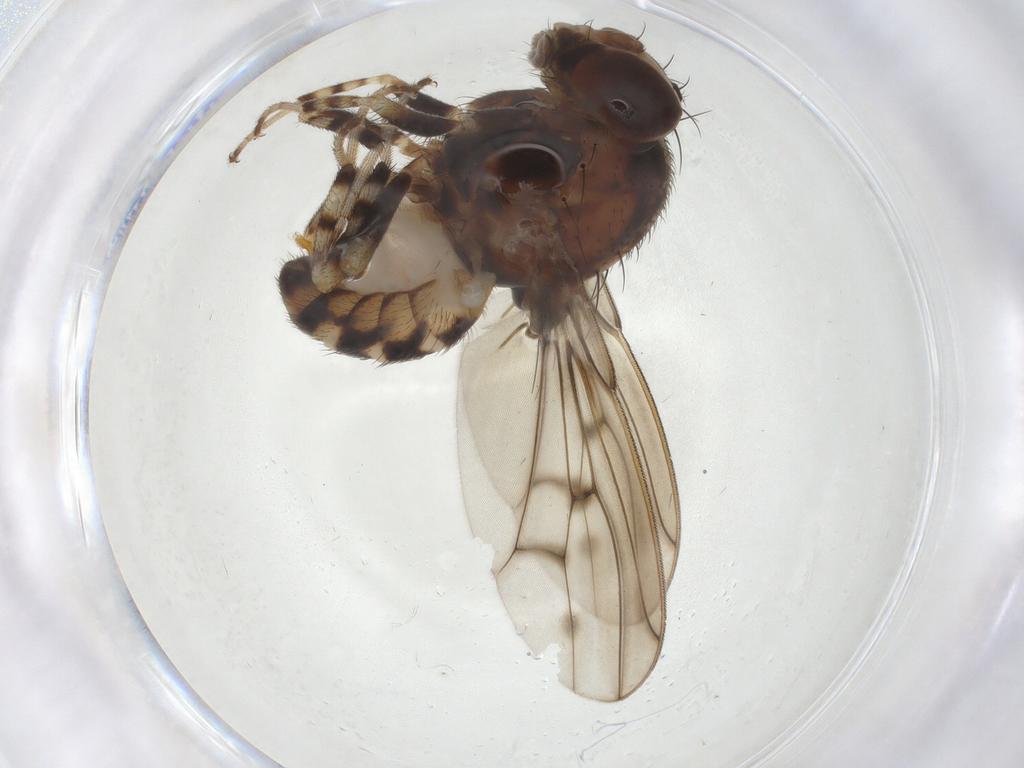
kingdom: Animalia
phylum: Arthropoda
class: Insecta
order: Diptera
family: Drosophilidae
